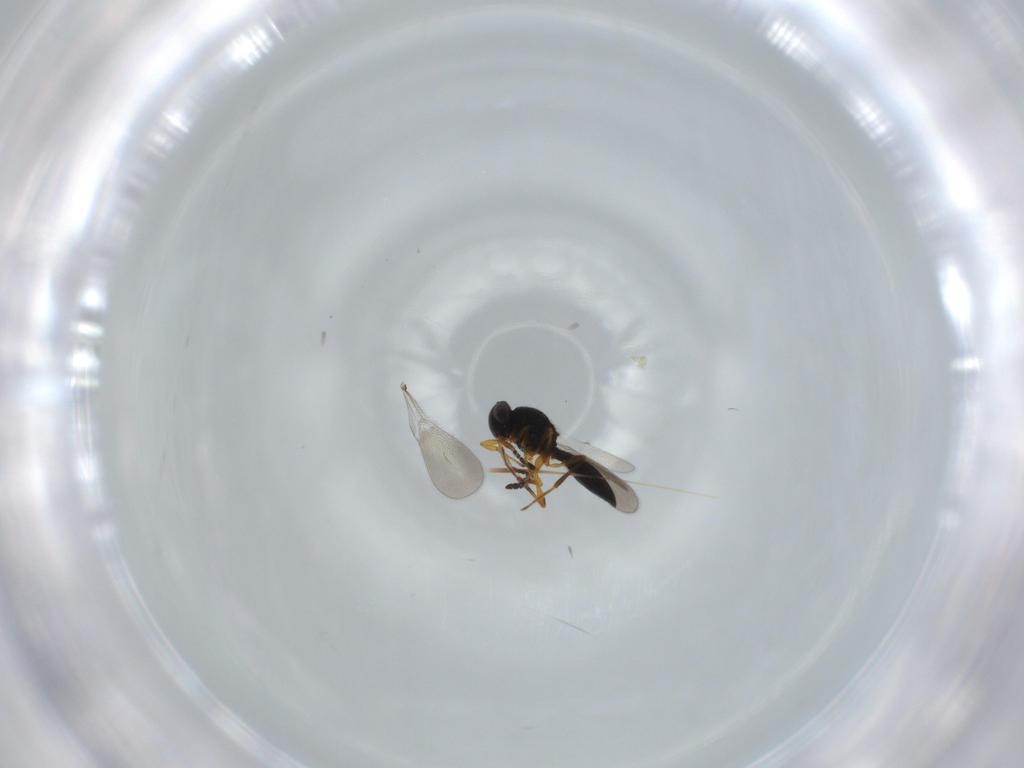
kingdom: Animalia
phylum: Arthropoda
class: Insecta
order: Hymenoptera
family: Platygastridae
